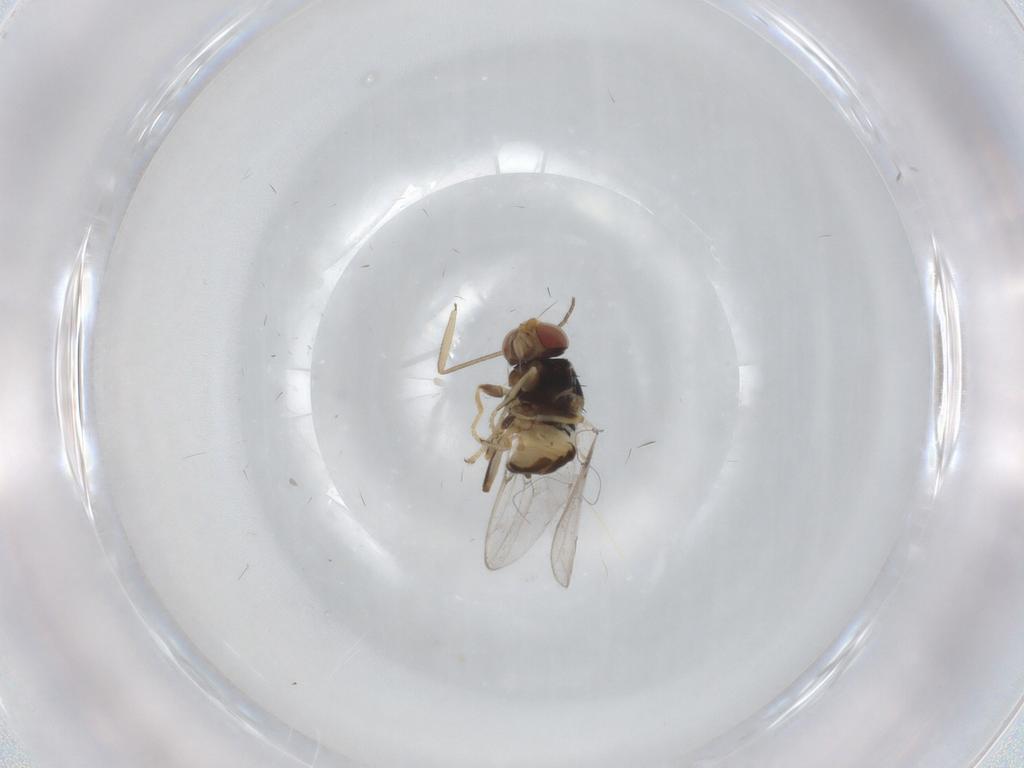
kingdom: Animalia
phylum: Arthropoda
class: Insecta
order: Diptera
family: Chloropidae
